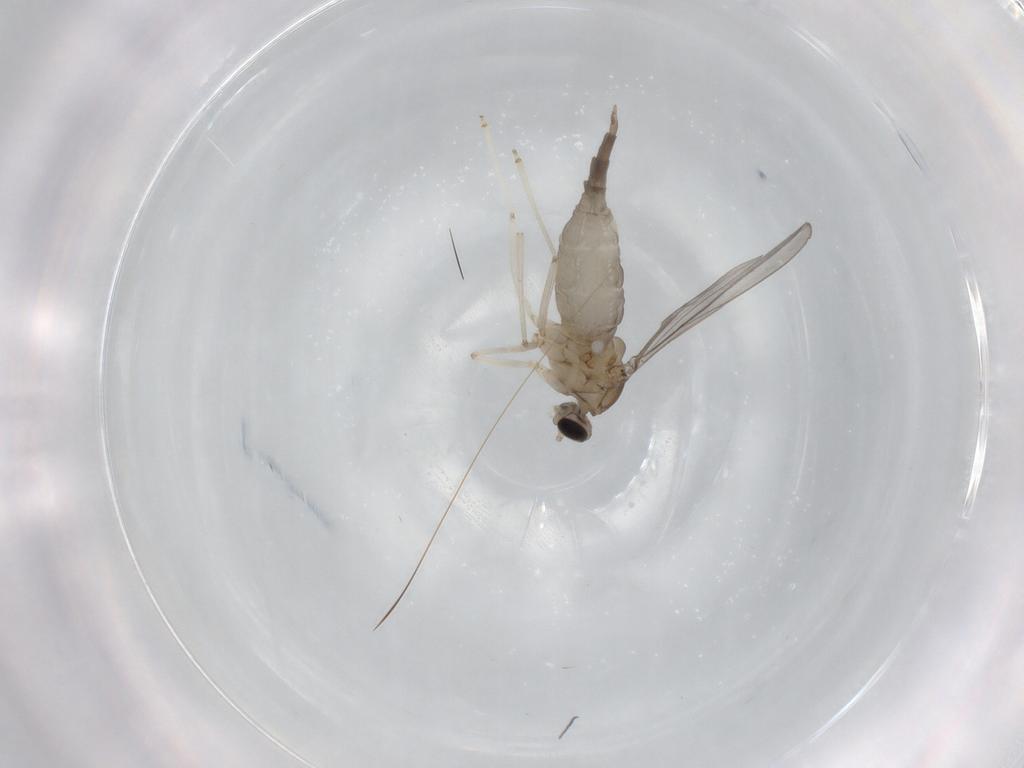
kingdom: Animalia
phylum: Arthropoda
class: Insecta
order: Diptera
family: Cecidomyiidae
